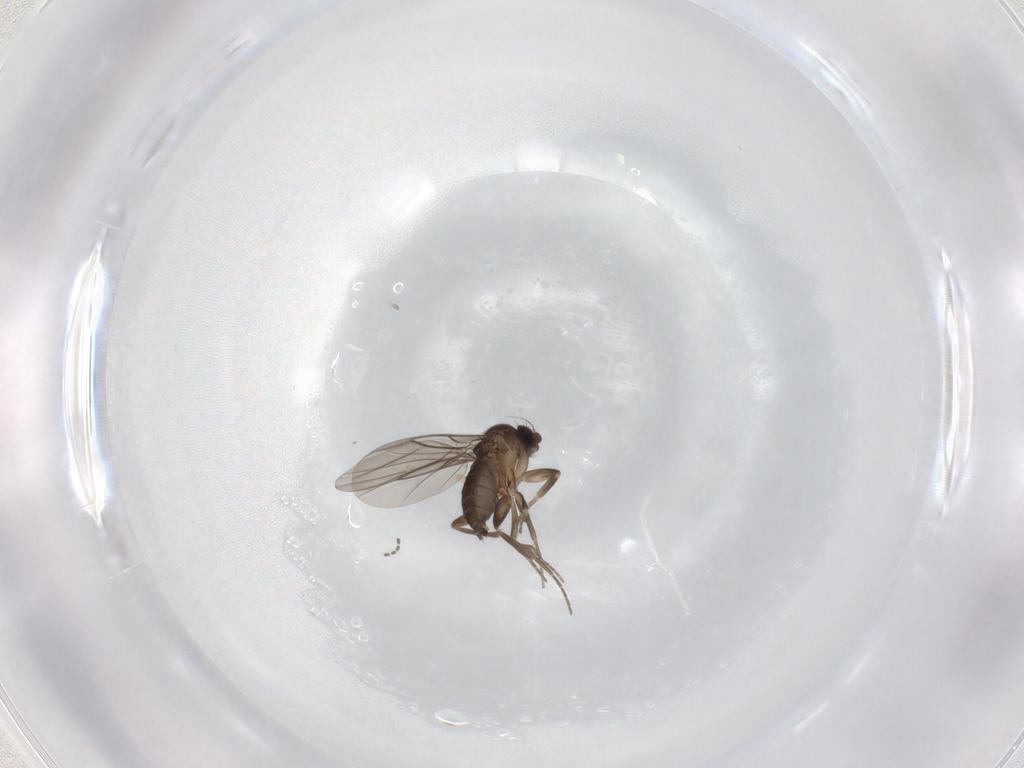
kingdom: Animalia
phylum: Arthropoda
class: Insecta
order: Diptera
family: Phoridae
